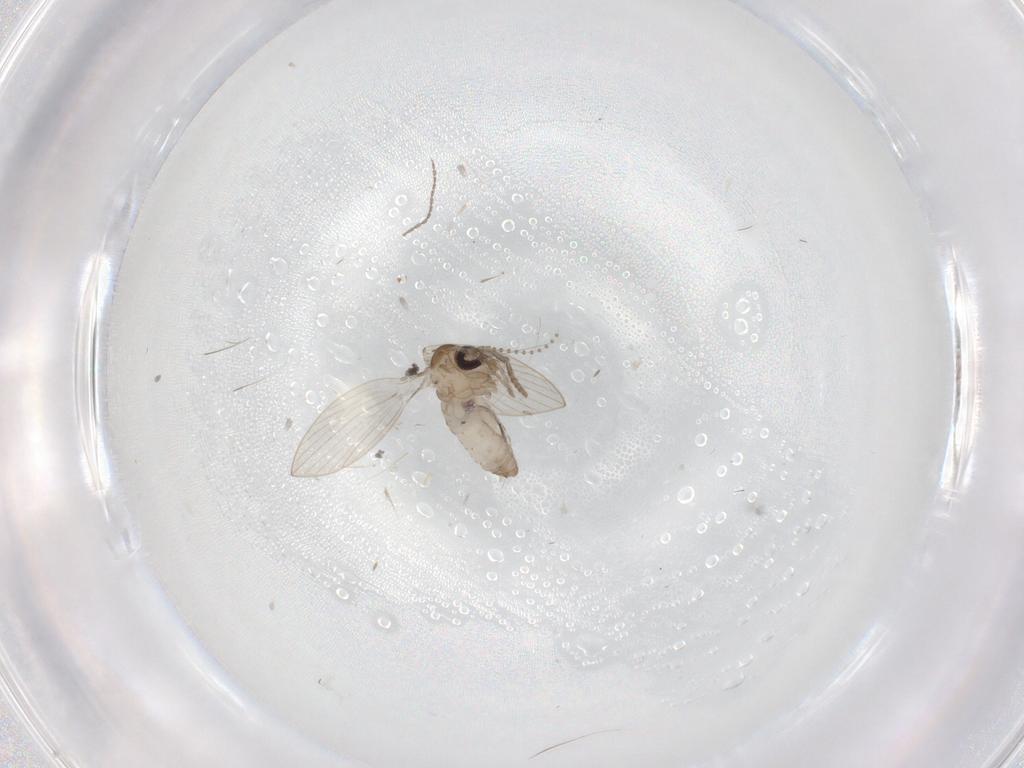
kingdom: Animalia
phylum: Arthropoda
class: Insecta
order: Diptera
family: Psychodidae
